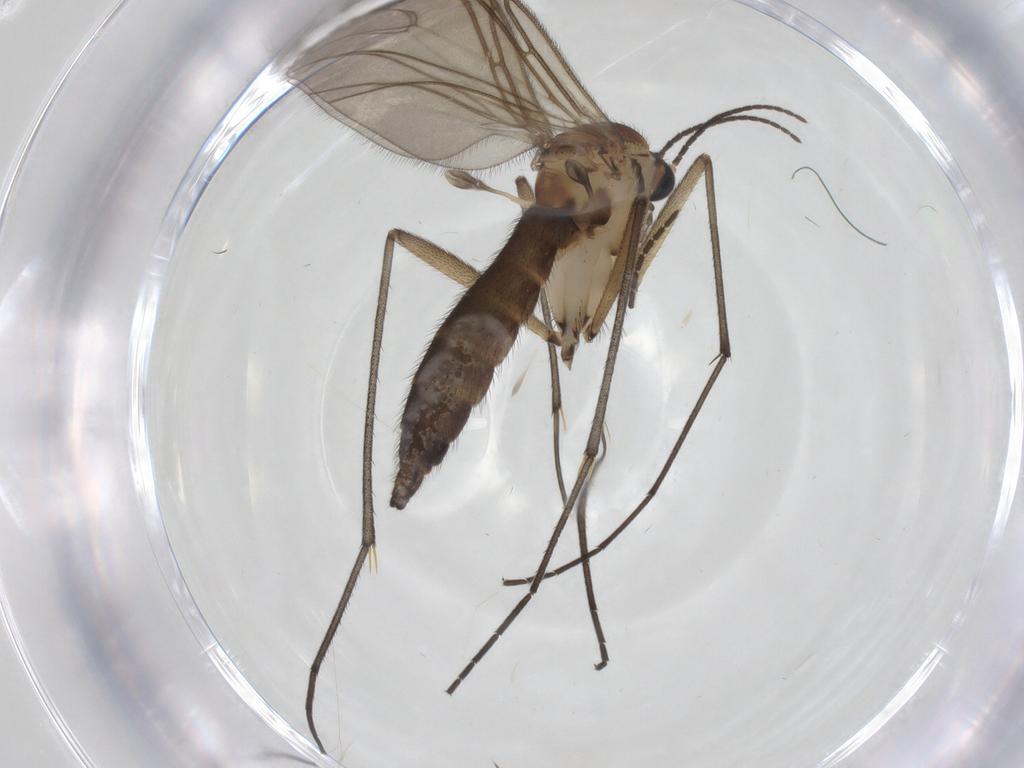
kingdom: Animalia
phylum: Arthropoda
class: Insecta
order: Diptera
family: Sciaridae
